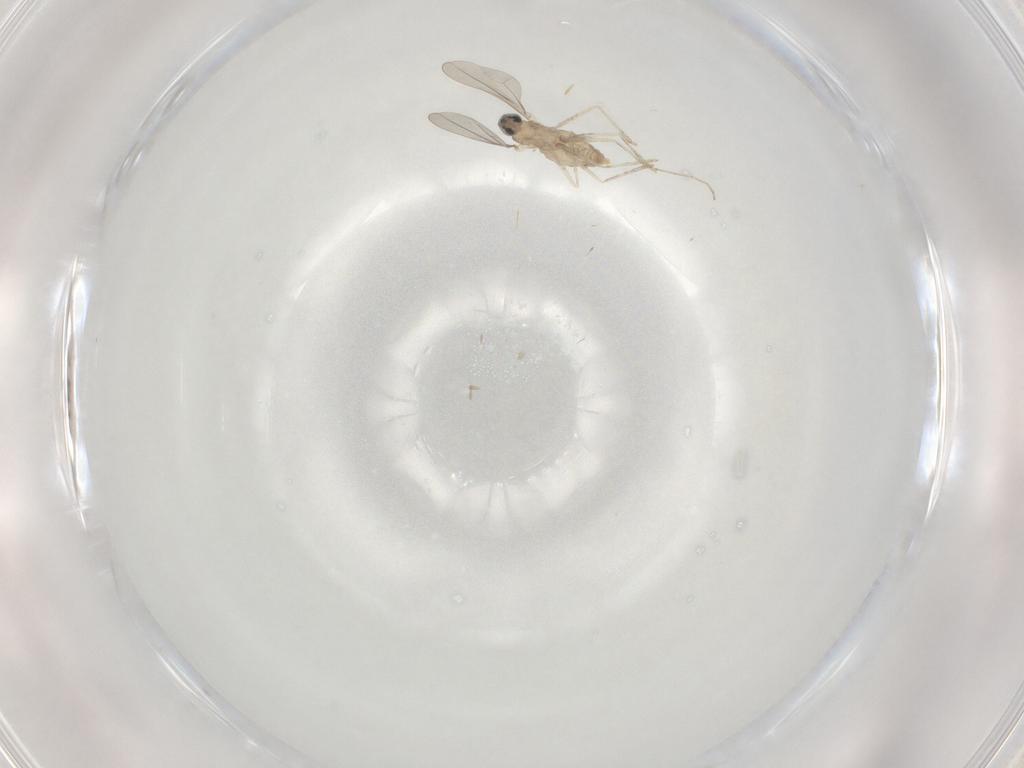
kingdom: Animalia
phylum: Arthropoda
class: Insecta
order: Diptera
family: Cecidomyiidae
